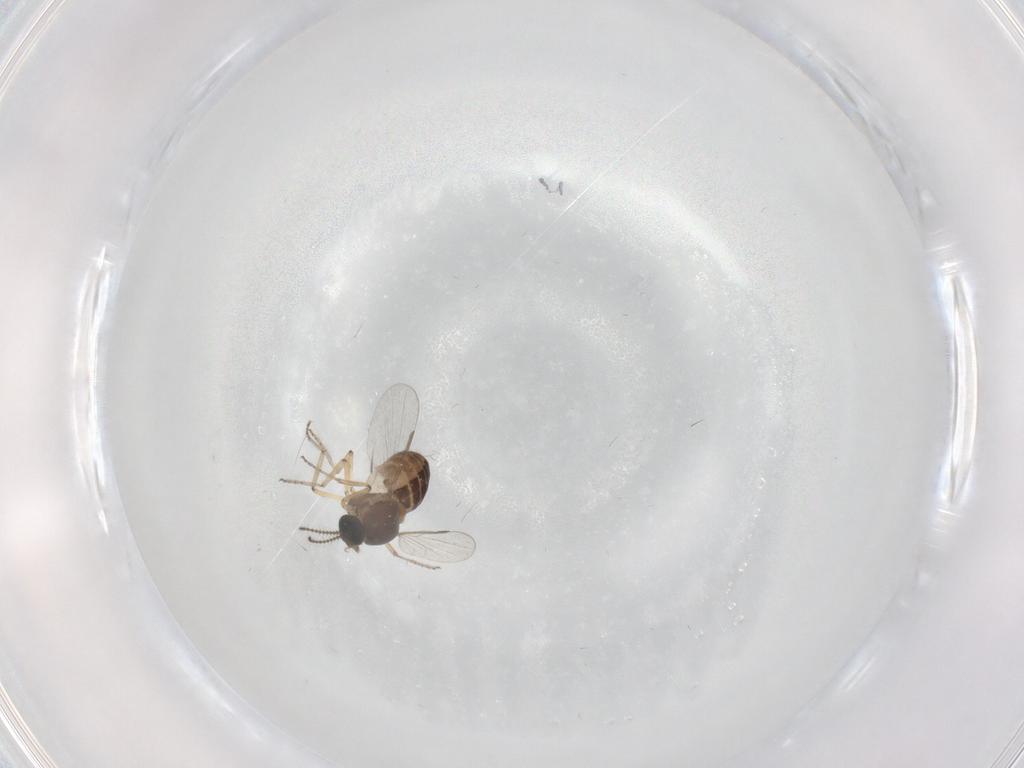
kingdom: Animalia
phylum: Arthropoda
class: Insecta
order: Diptera
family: Ceratopogonidae
